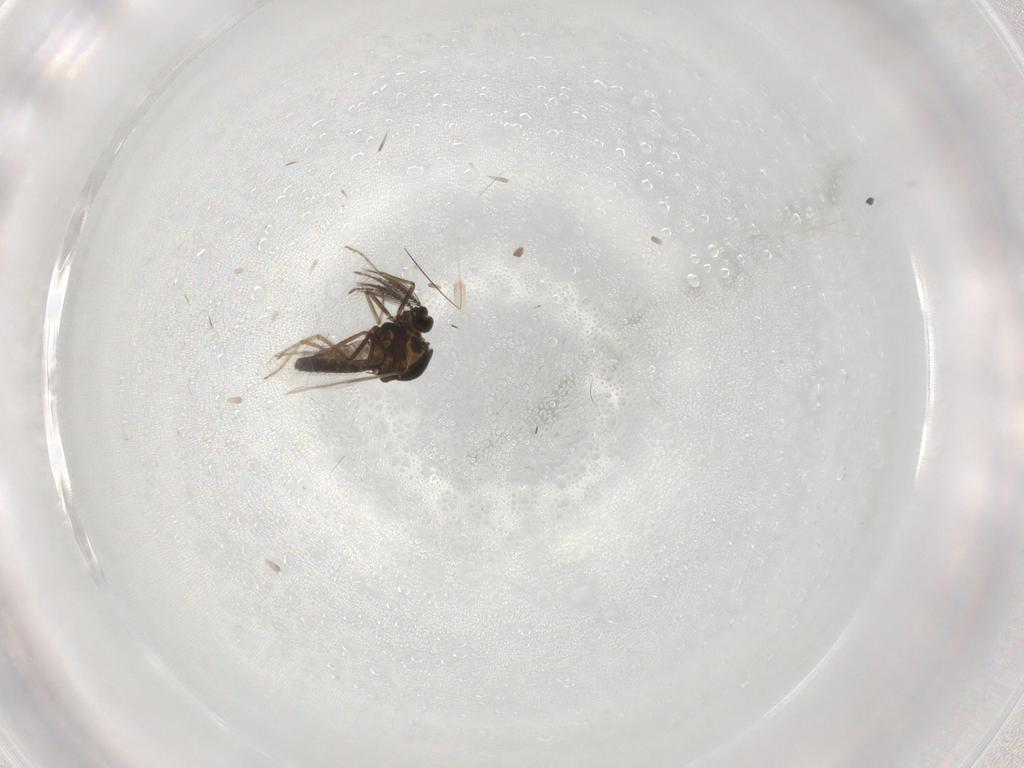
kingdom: Animalia
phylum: Arthropoda
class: Insecta
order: Diptera
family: Ceratopogonidae
